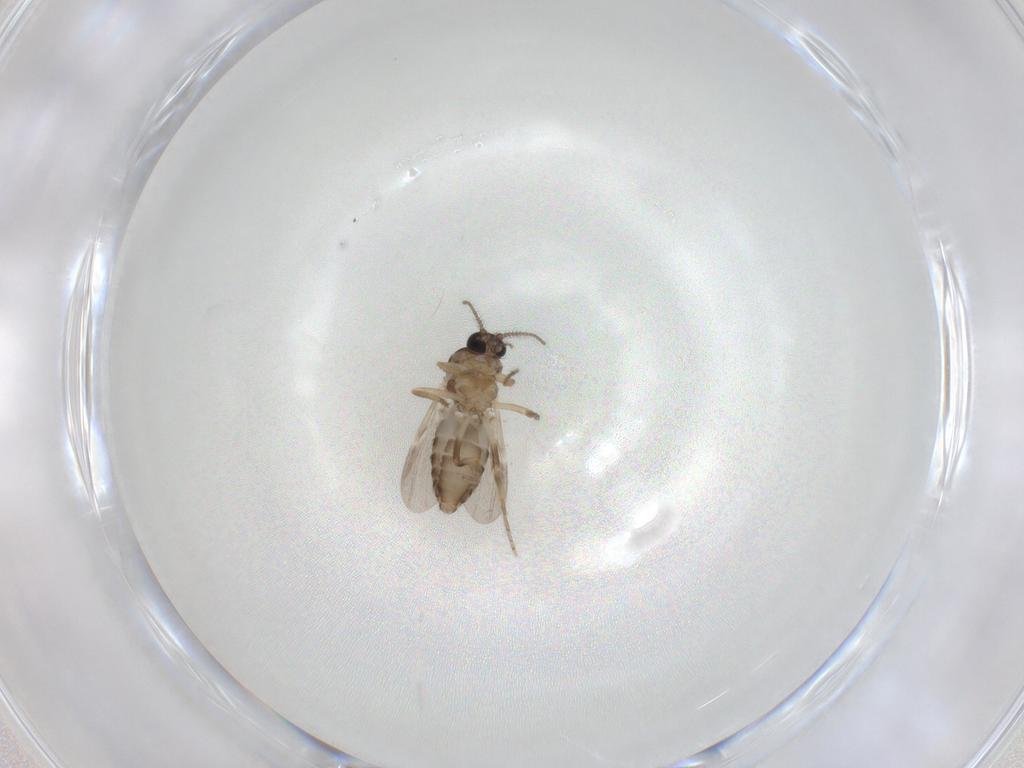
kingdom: Animalia
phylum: Arthropoda
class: Insecta
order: Diptera
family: Ceratopogonidae
